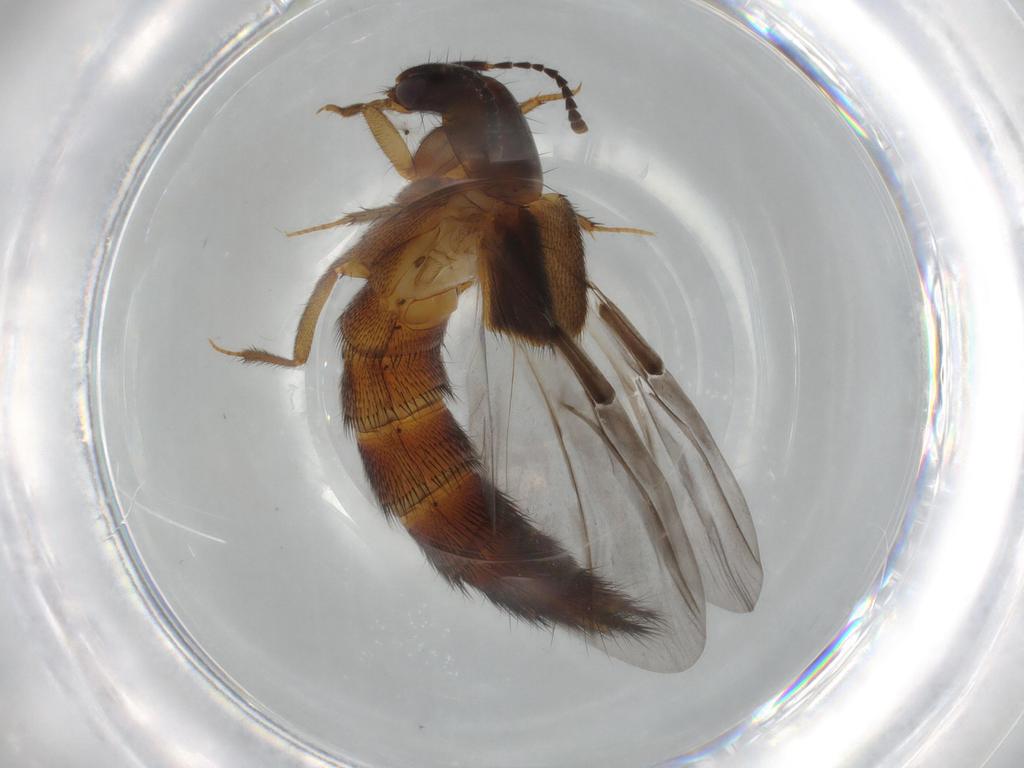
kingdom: Animalia
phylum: Arthropoda
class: Insecta
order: Coleoptera
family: Staphylinidae
